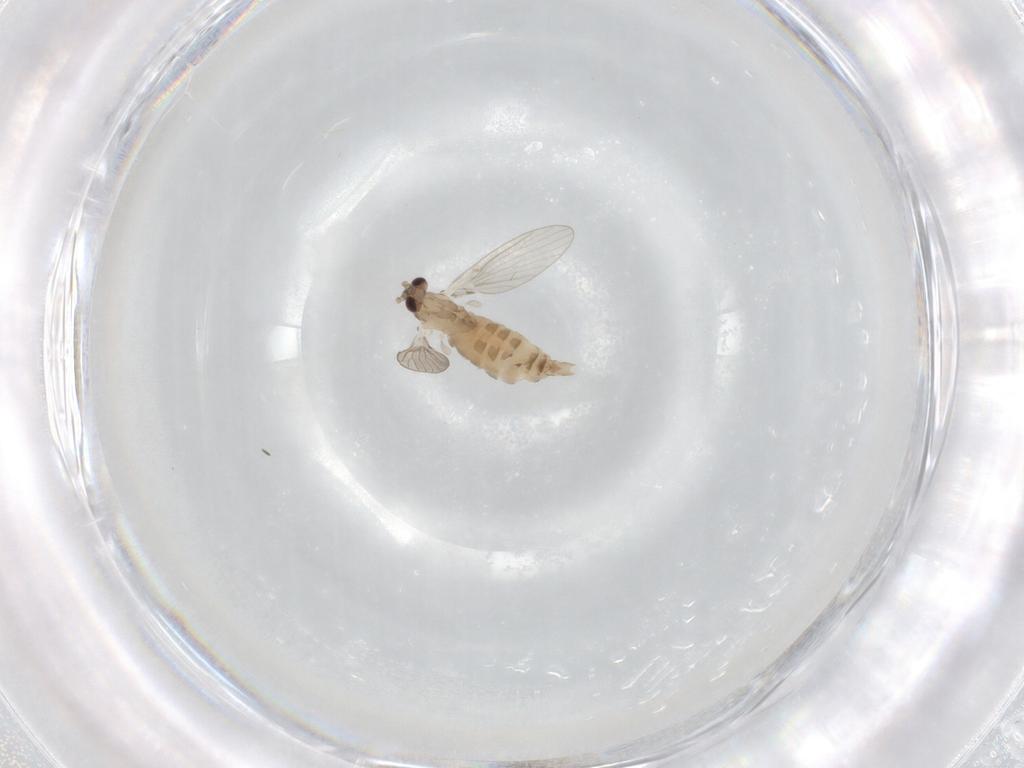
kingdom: Animalia
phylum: Arthropoda
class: Insecta
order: Diptera
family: Psychodidae
